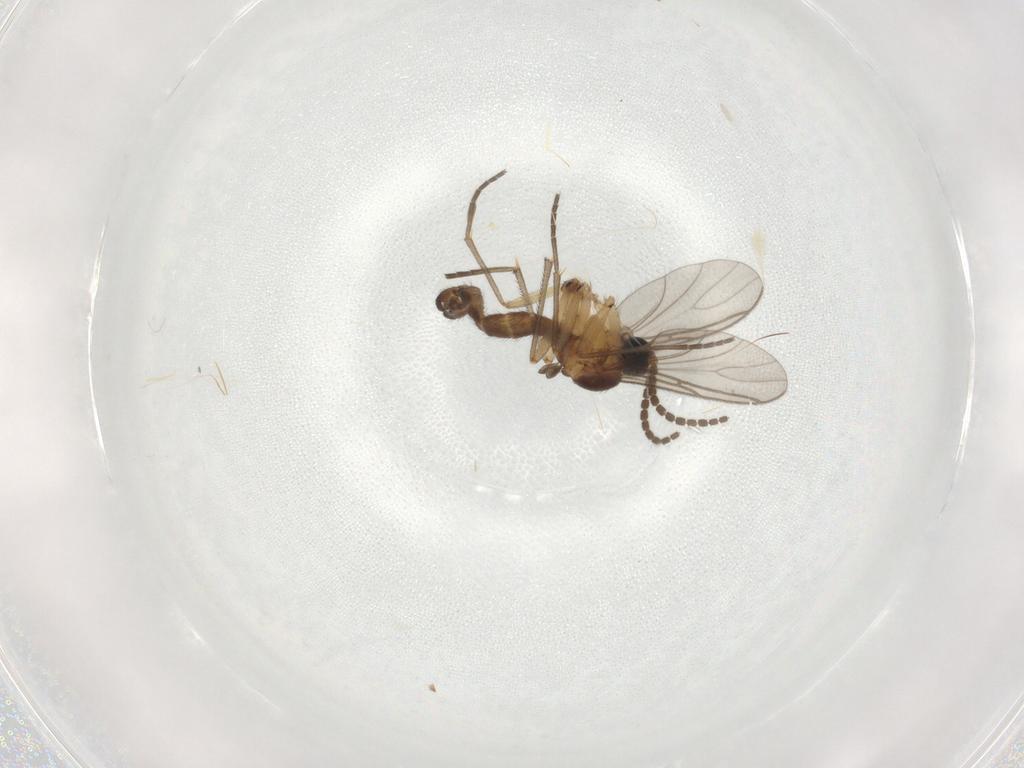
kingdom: Animalia
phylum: Arthropoda
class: Insecta
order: Diptera
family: Sciaridae
